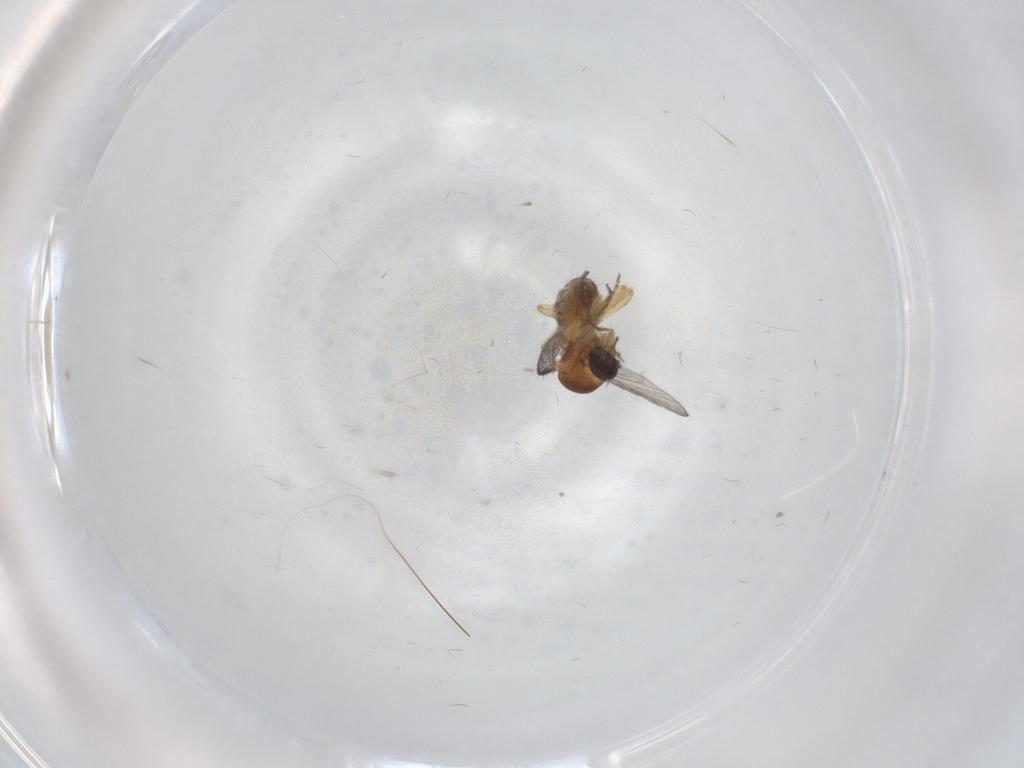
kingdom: Animalia
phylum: Arthropoda
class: Insecta
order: Diptera
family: Ceratopogonidae
